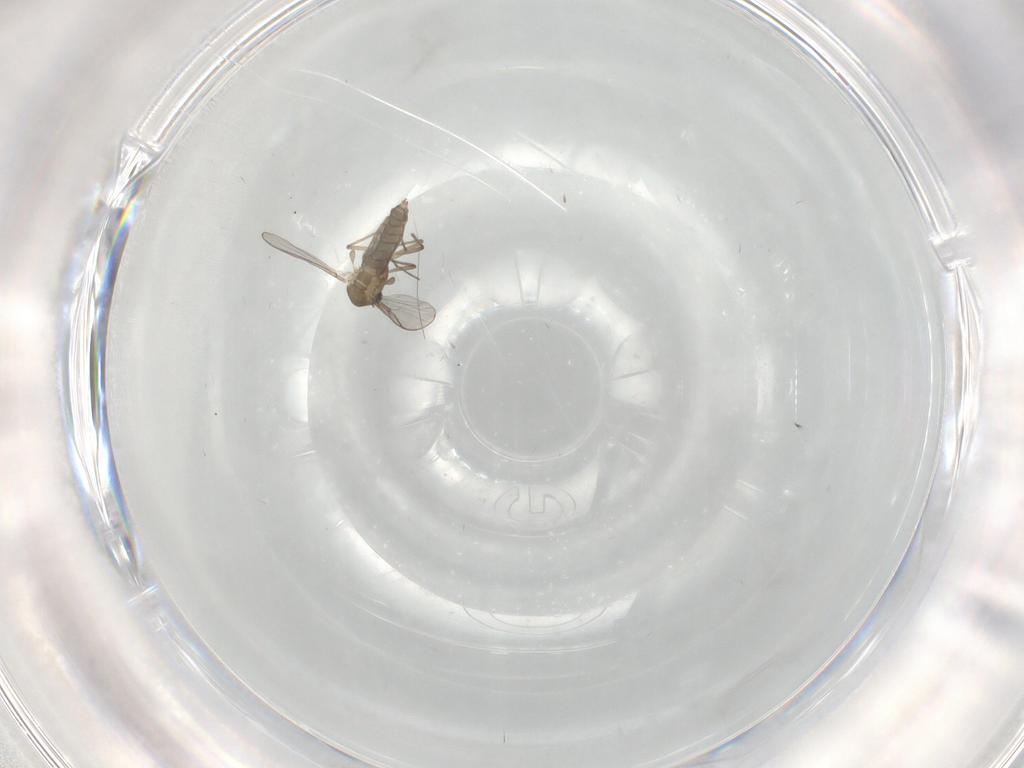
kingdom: Animalia
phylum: Arthropoda
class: Insecta
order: Diptera
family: Chironomidae
